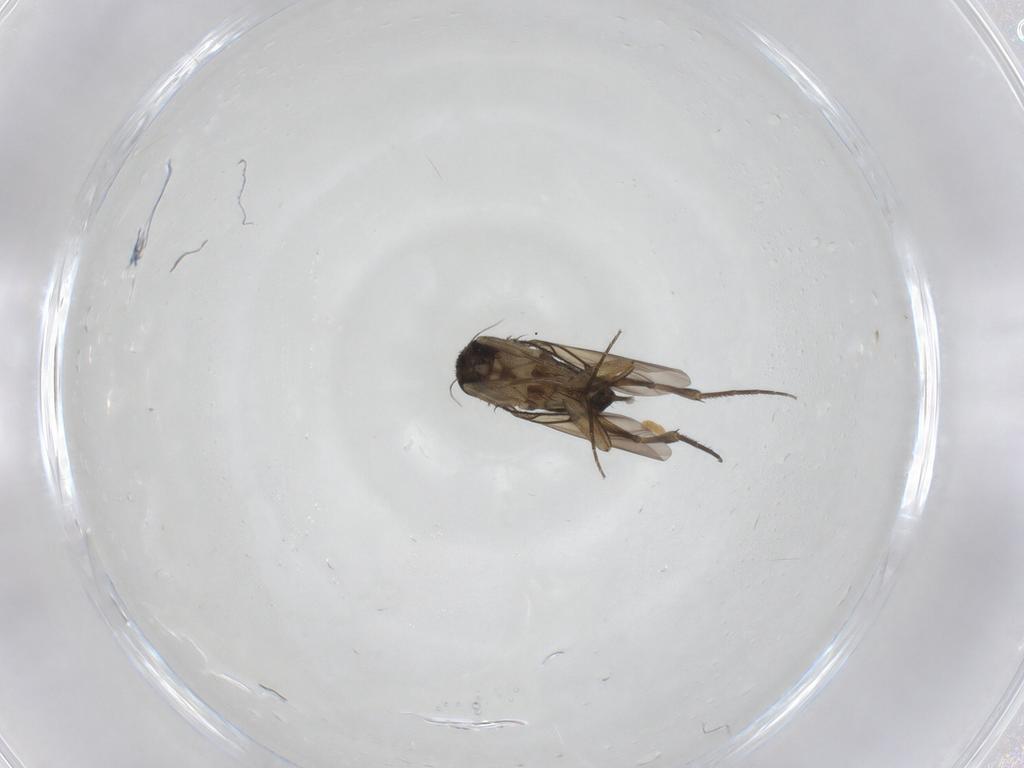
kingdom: Animalia
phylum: Arthropoda
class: Insecta
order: Diptera
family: Phoridae
